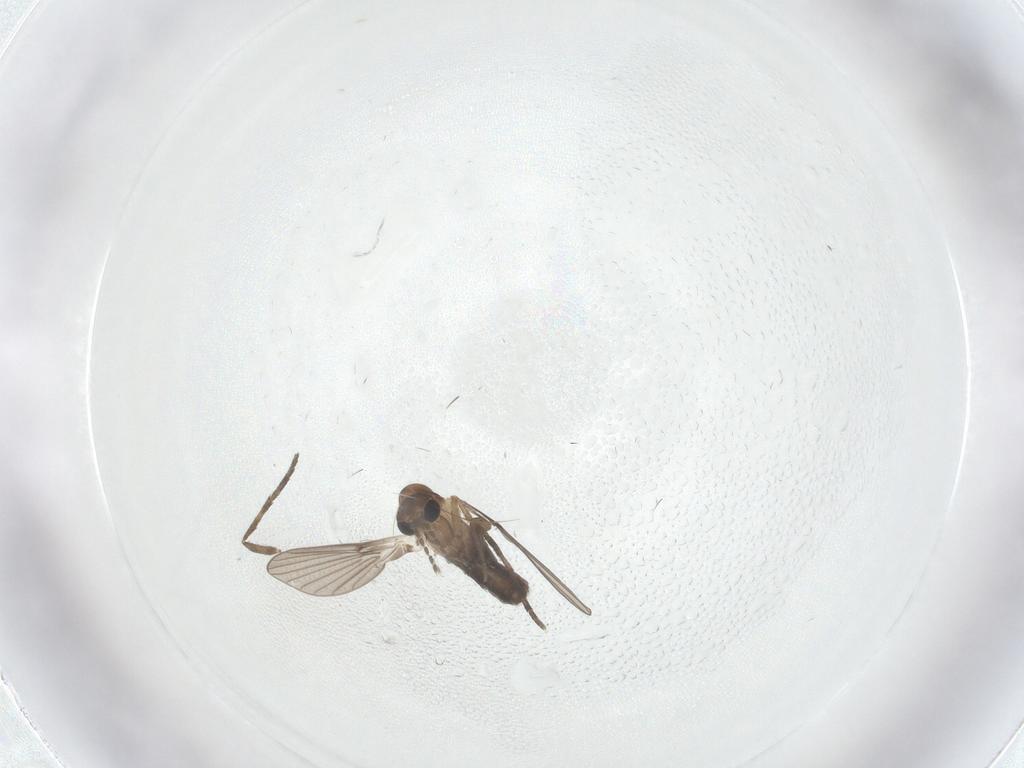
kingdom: Animalia
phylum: Arthropoda
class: Insecta
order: Diptera
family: Psychodidae
